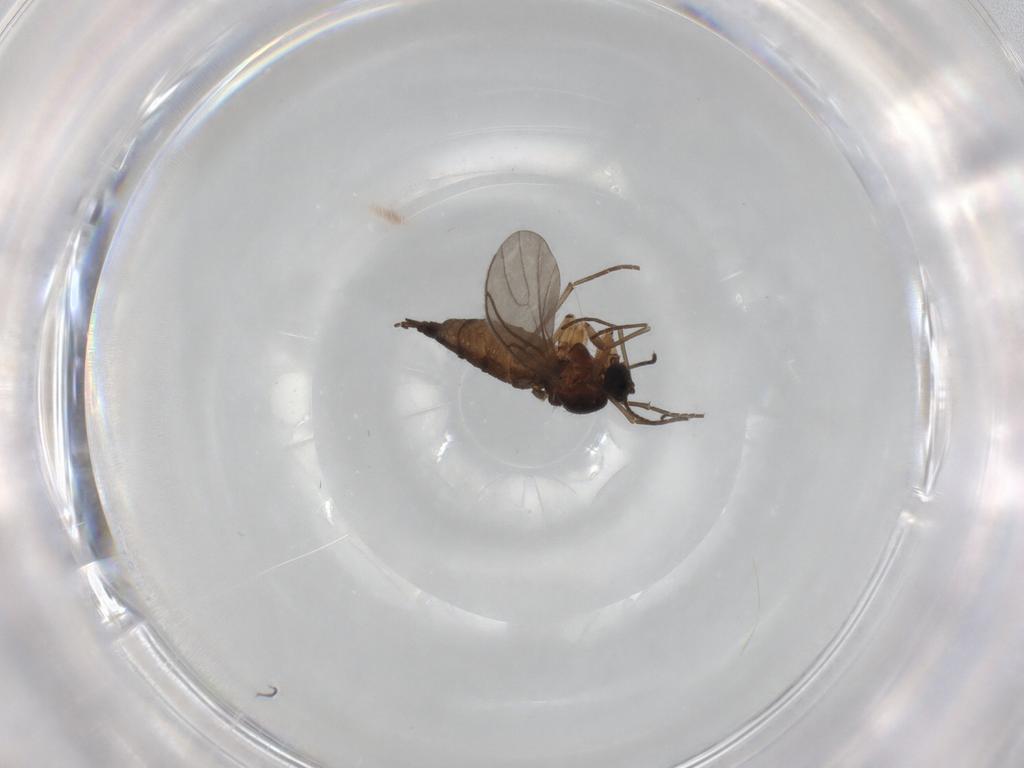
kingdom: Animalia
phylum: Arthropoda
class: Insecta
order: Diptera
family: Sciaridae
